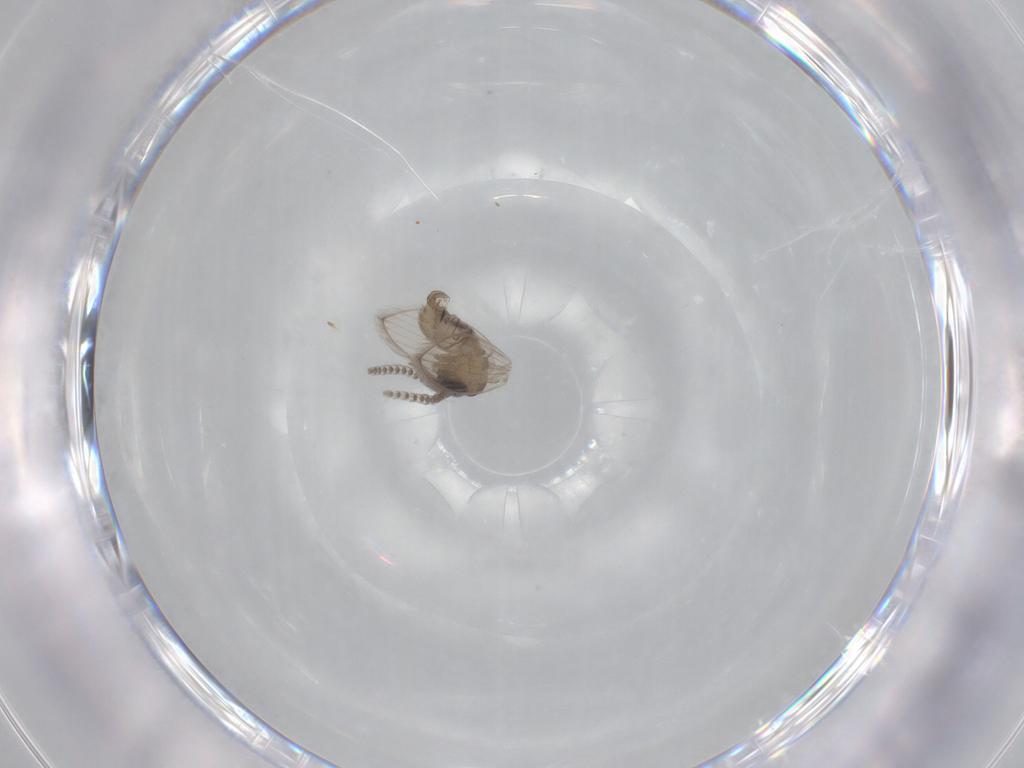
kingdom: Animalia
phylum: Arthropoda
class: Insecta
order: Diptera
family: Psychodidae
